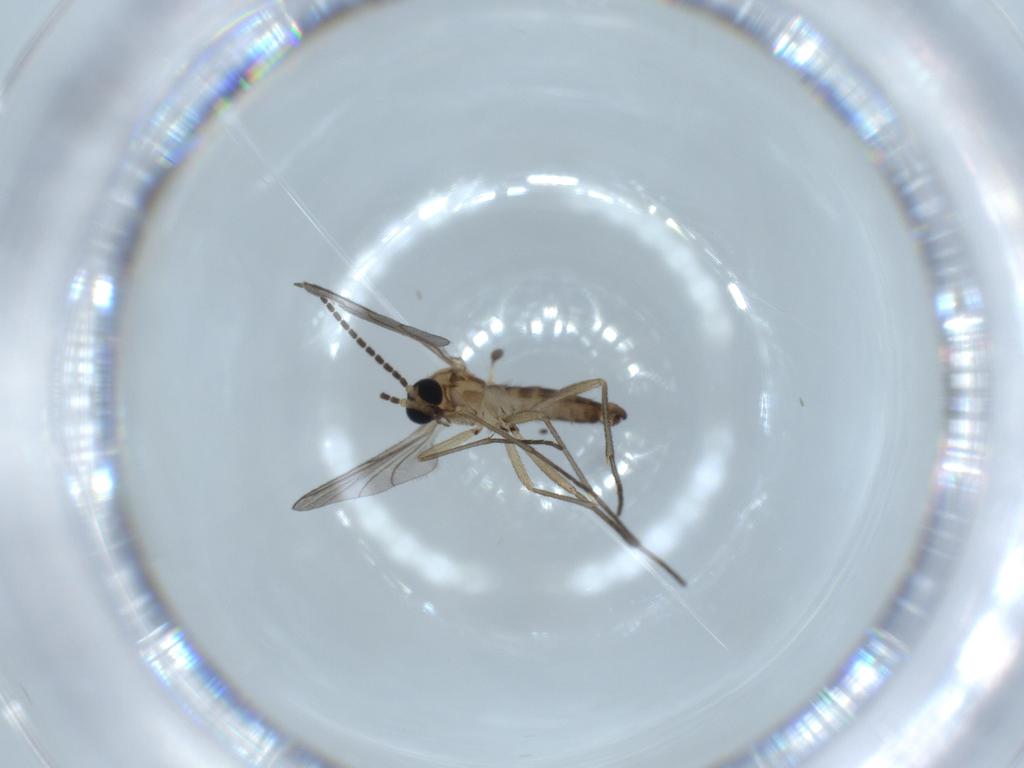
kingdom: Animalia
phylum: Arthropoda
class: Insecta
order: Diptera
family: Sciaridae
